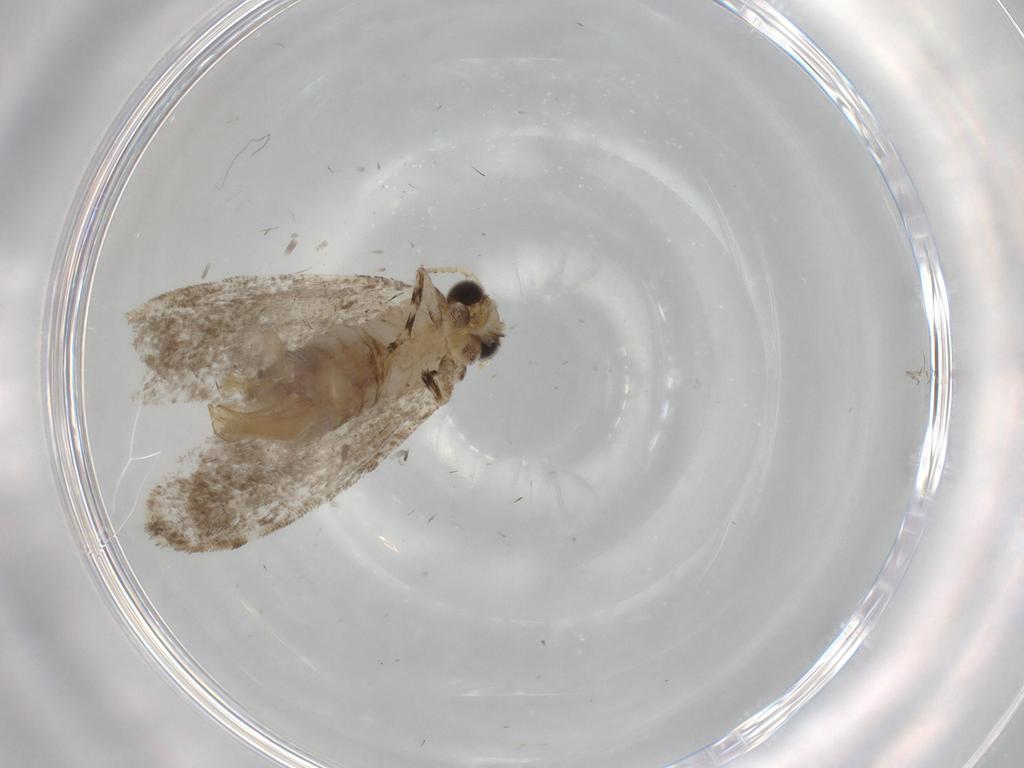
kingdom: Animalia
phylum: Arthropoda
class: Insecta
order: Lepidoptera
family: Tineidae
